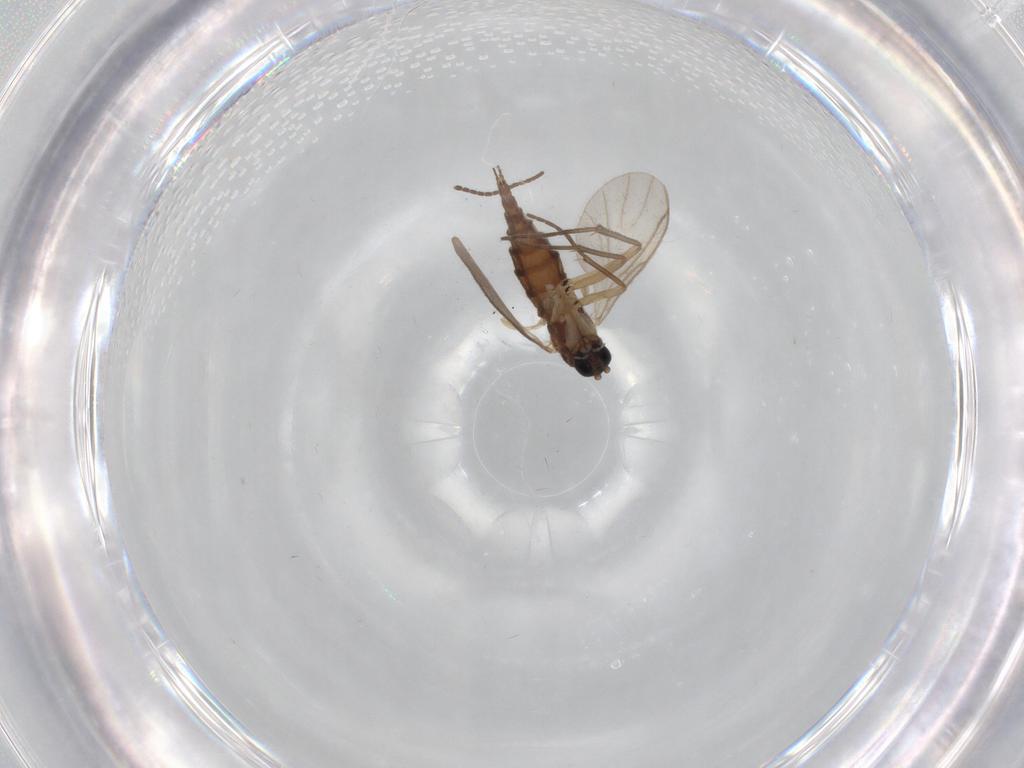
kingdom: Animalia
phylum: Arthropoda
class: Insecta
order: Diptera
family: Sciaridae
